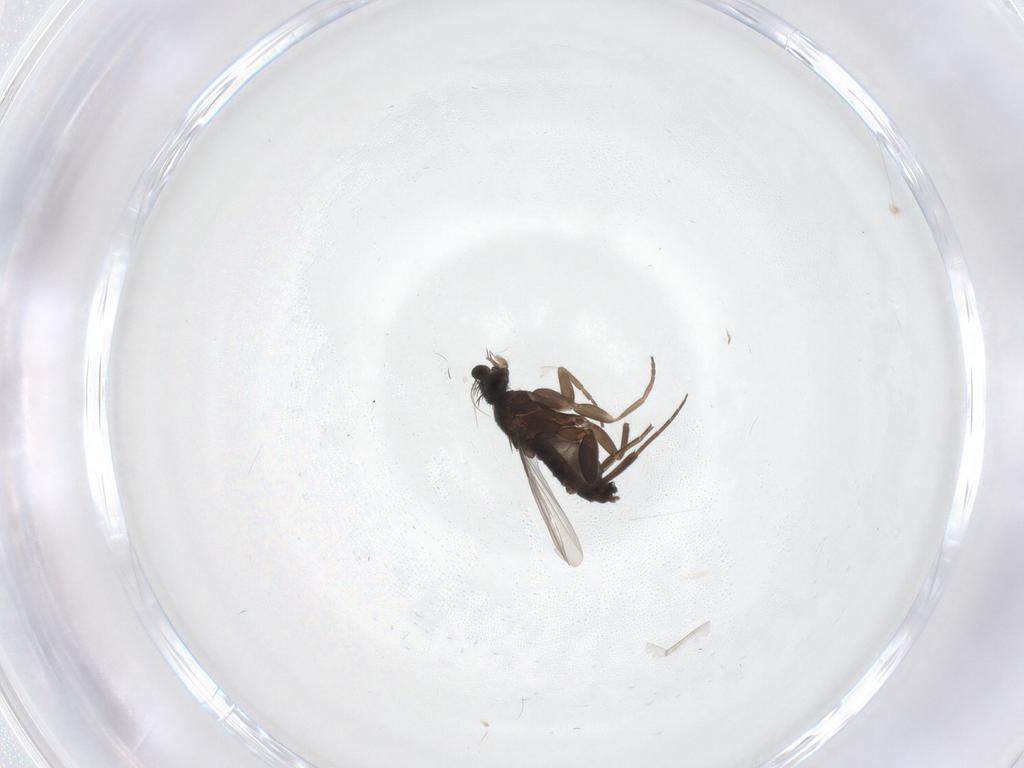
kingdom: Animalia
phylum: Arthropoda
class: Insecta
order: Diptera
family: Phoridae
